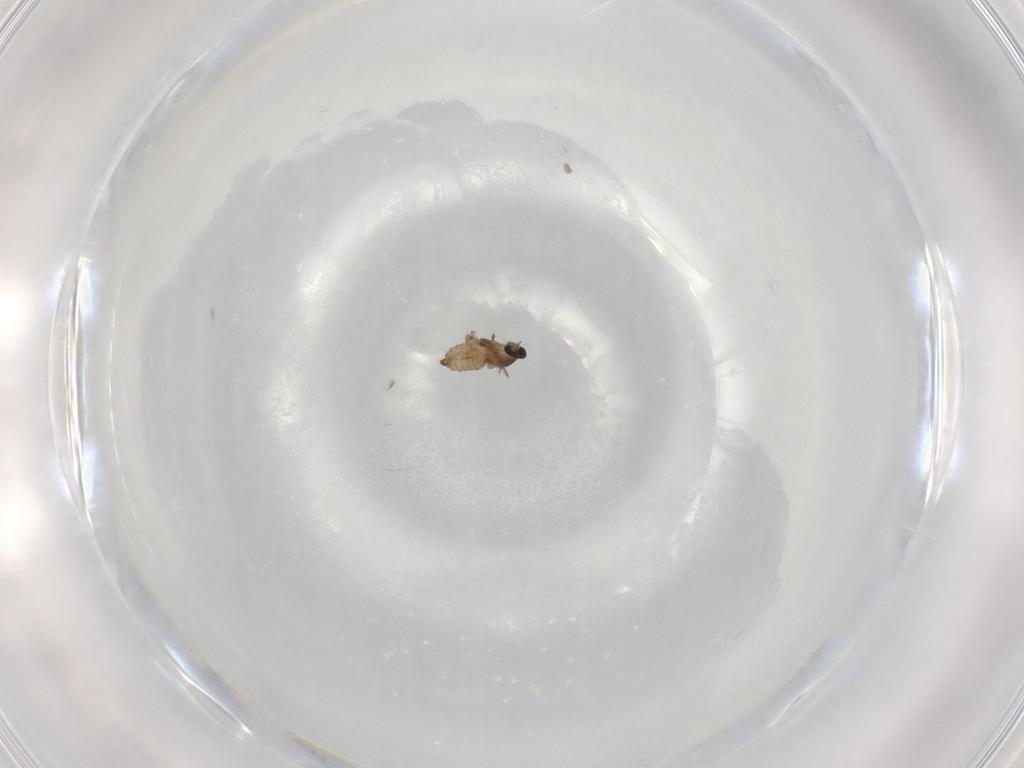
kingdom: Animalia
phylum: Arthropoda
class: Insecta
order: Diptera
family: Cecidomyiidae
